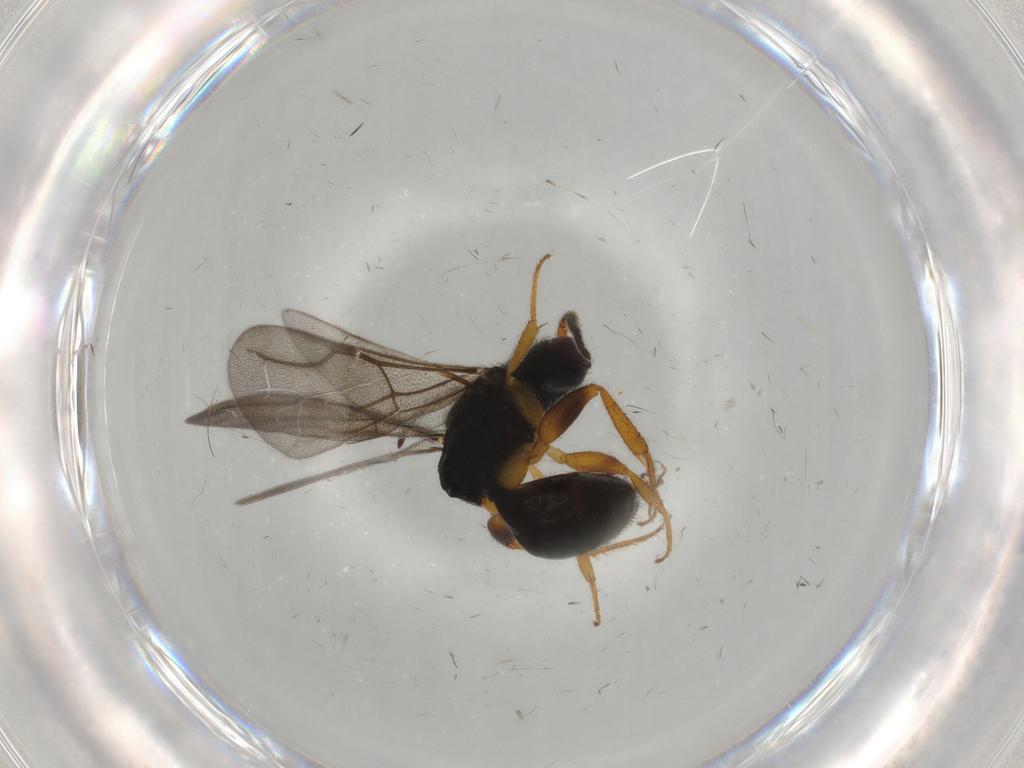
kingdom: Animalia
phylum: Arthropoda
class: Insecta
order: Hymenoptera
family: Bethylidae
